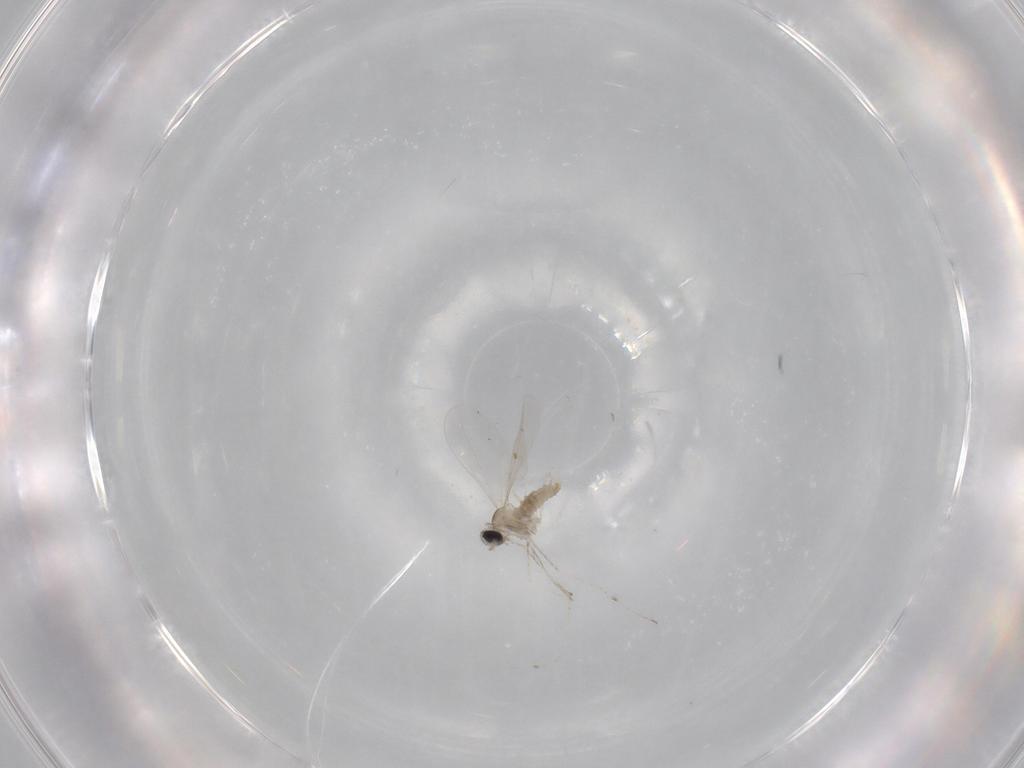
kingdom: Animalia
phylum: Arthropoda
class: Insecta
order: Diptera
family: Cecidomyiidae
